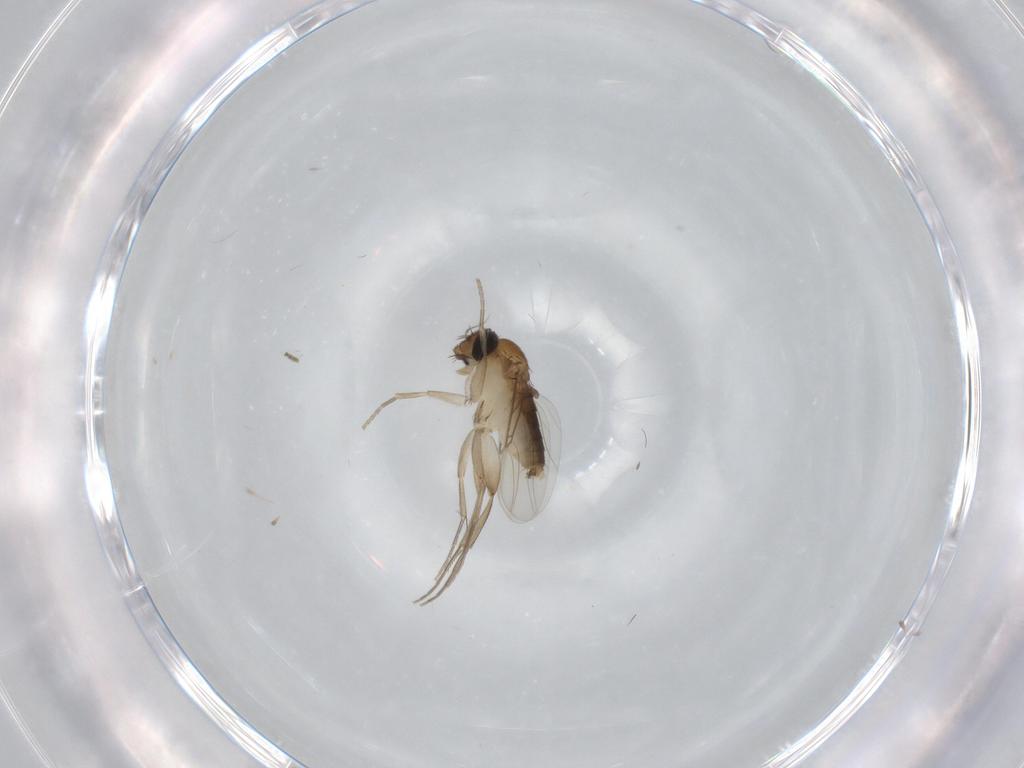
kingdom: Animalia
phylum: Arthropoda
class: Insecta
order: Diptera
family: Phoridae
